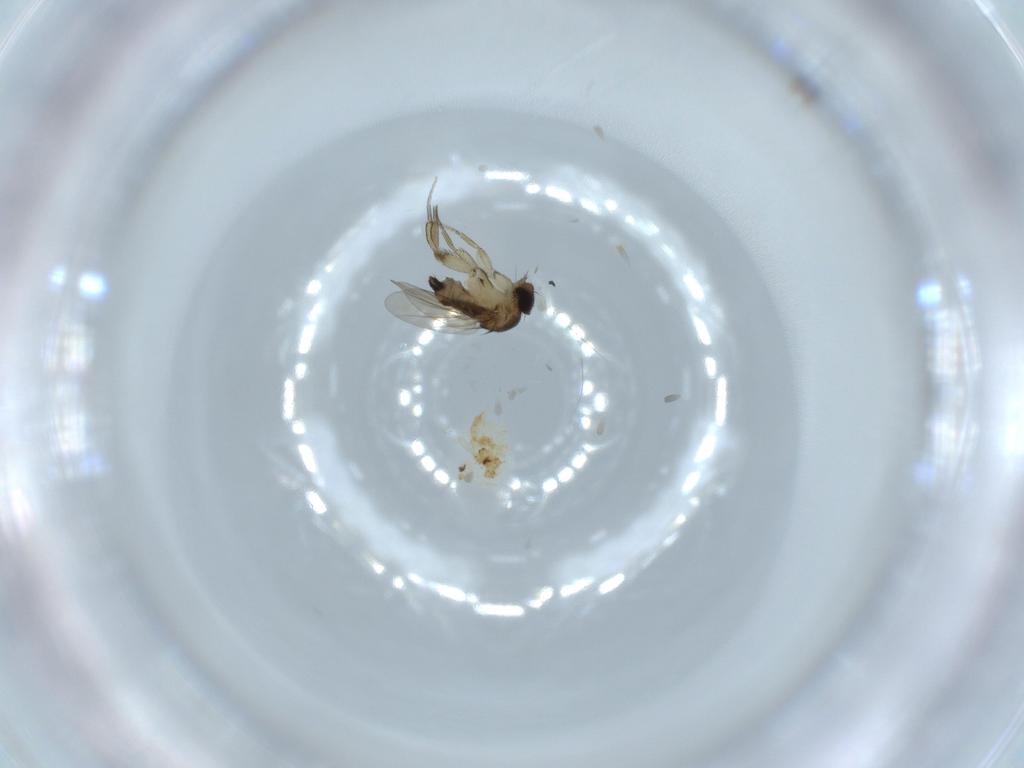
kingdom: Animalia
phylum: Arthropoda
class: Insecta
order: Diptera
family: Phoridae
